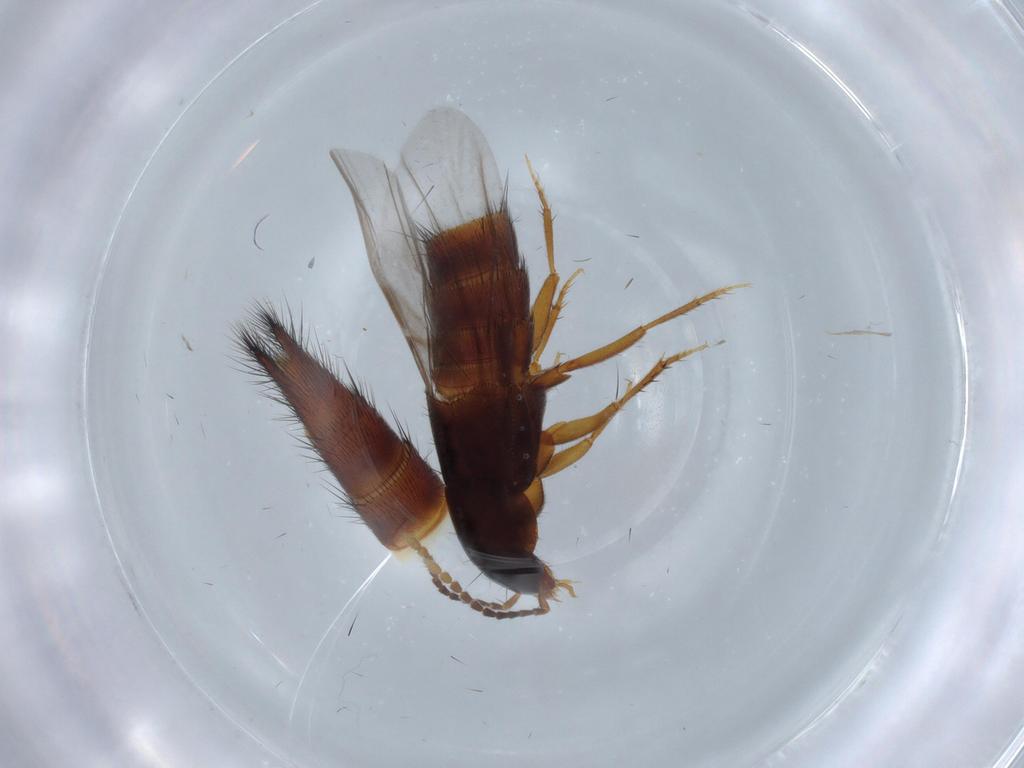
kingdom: Animalia
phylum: Arthropoda
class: Insecta
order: Coleoptera
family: Staphylinidae
